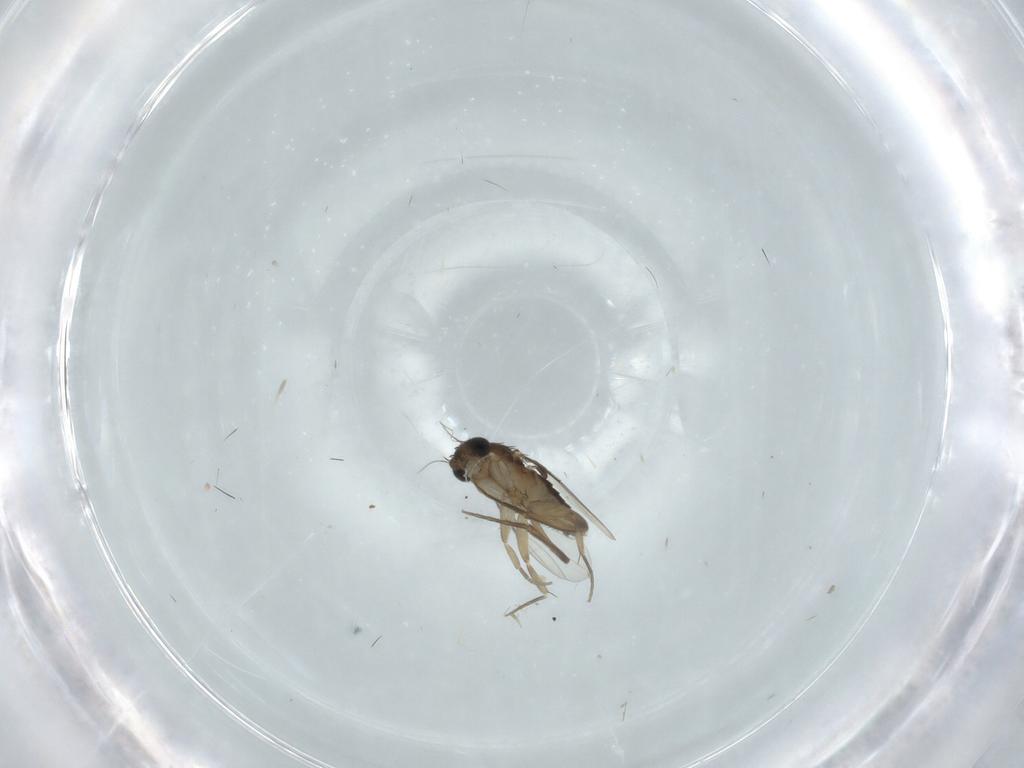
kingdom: Animalia
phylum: Arthropoda
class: Insecta
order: Diptera
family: Phoridae
